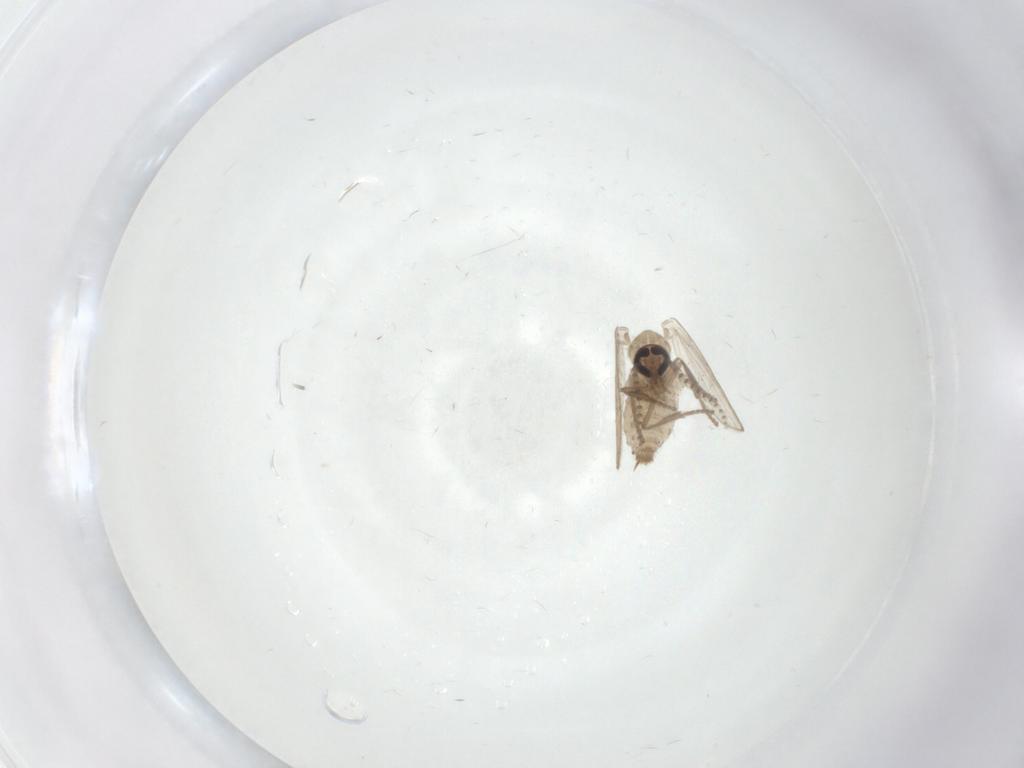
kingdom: Animalia
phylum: Arthropoda
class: Insecta
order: Diptera
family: Psychodidae
